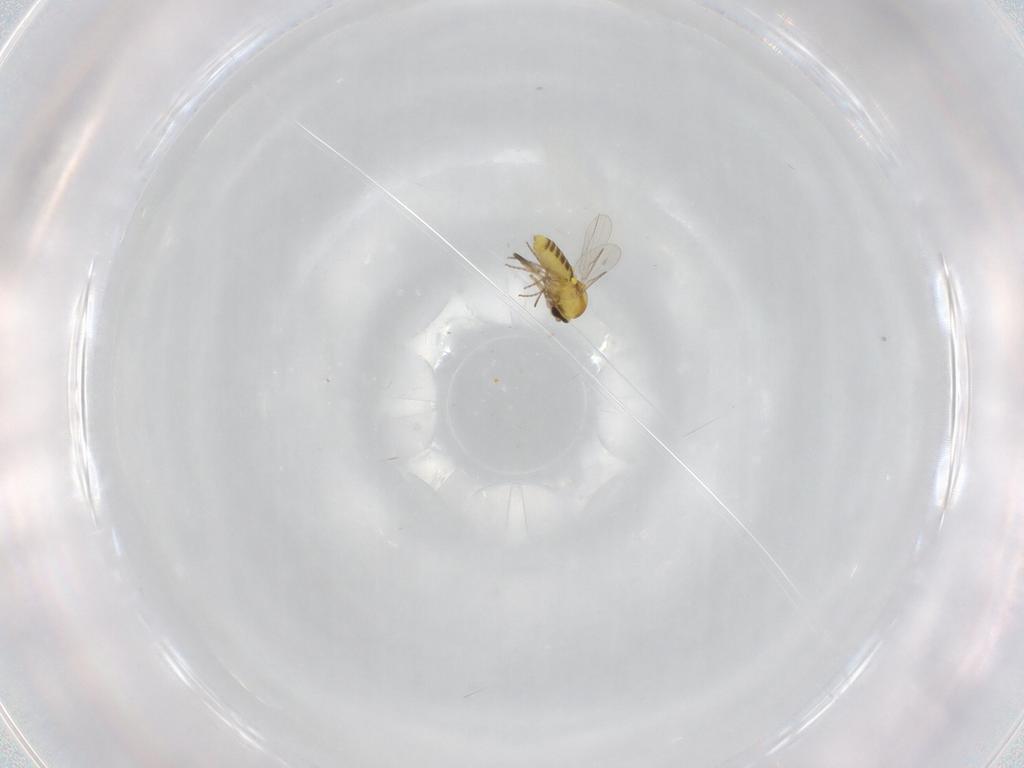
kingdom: Animalia
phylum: Arthropoda
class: Insecta
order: Diptera
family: Ceratopogonidae
